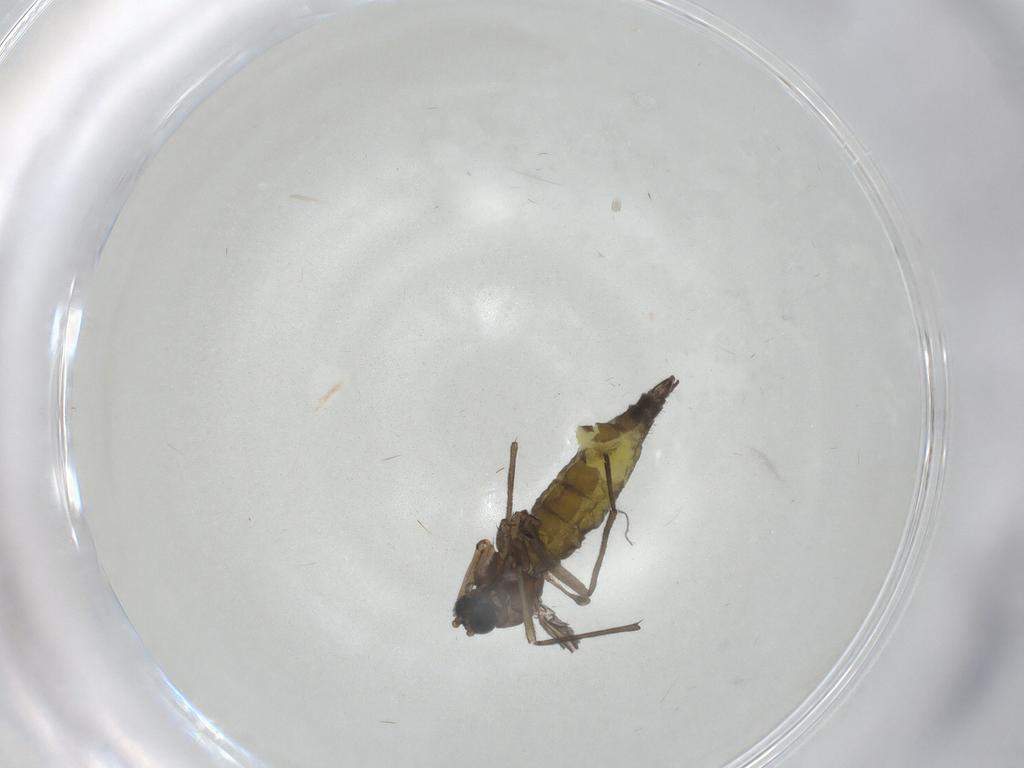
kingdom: Animalia
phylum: Arthropoda
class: Insecta
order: Diptera
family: Sciaridae
